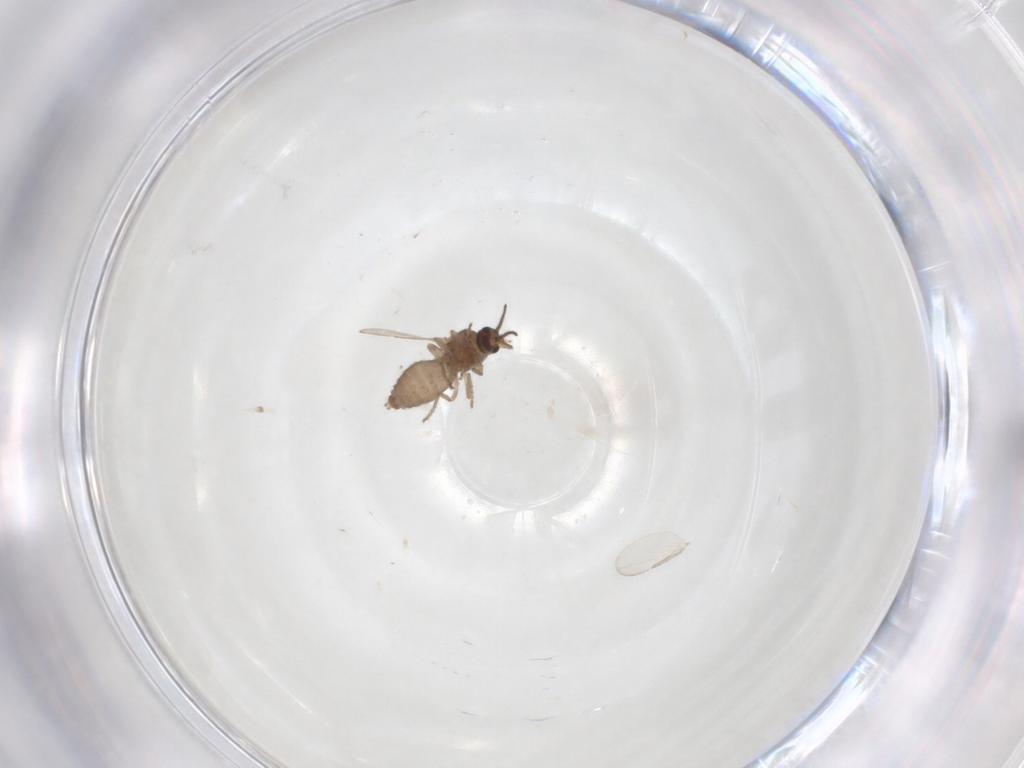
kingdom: Animalia
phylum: Arthropoda
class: Insecta
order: Diptera
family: Ceratopogonidae
